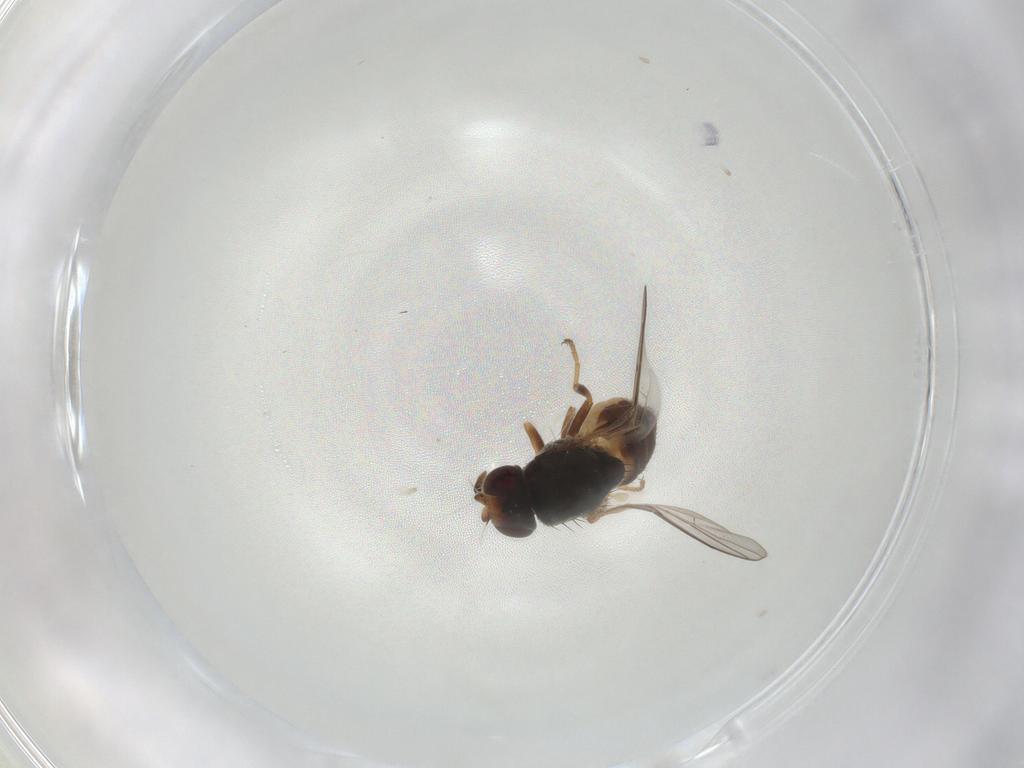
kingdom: Animalia
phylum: Arthropoda
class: Insecta
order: Diptera
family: Chloropidae
